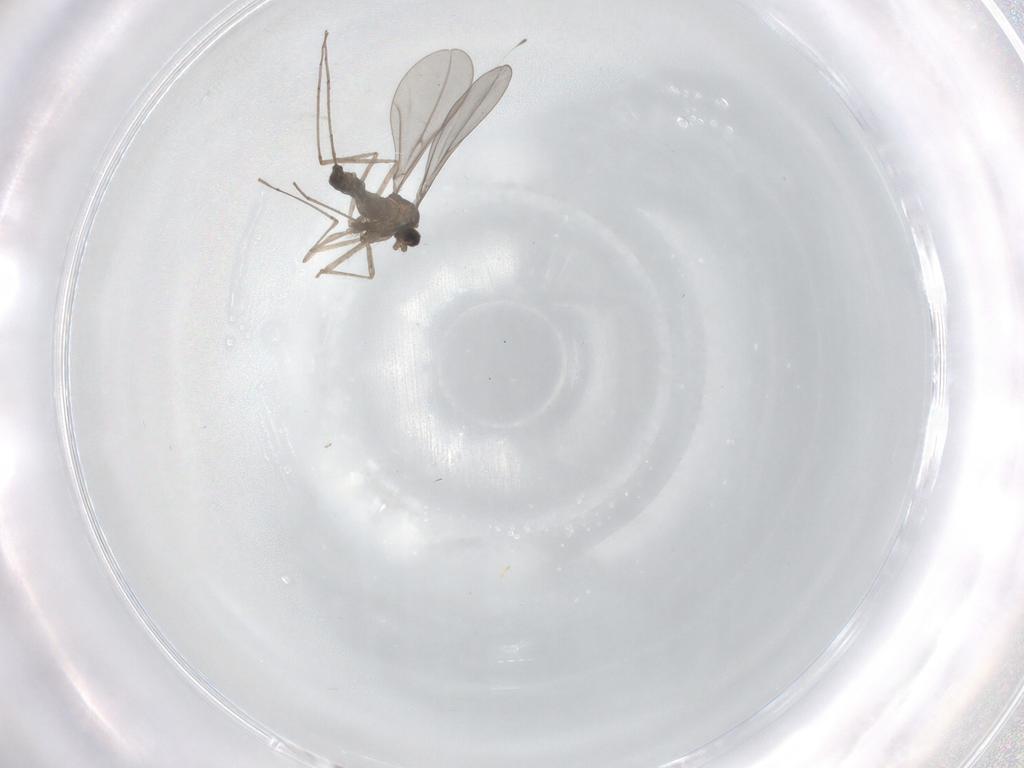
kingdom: Animalia
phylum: Arthropoda
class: Insecta
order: Diptera
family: Cecidomyiidae
